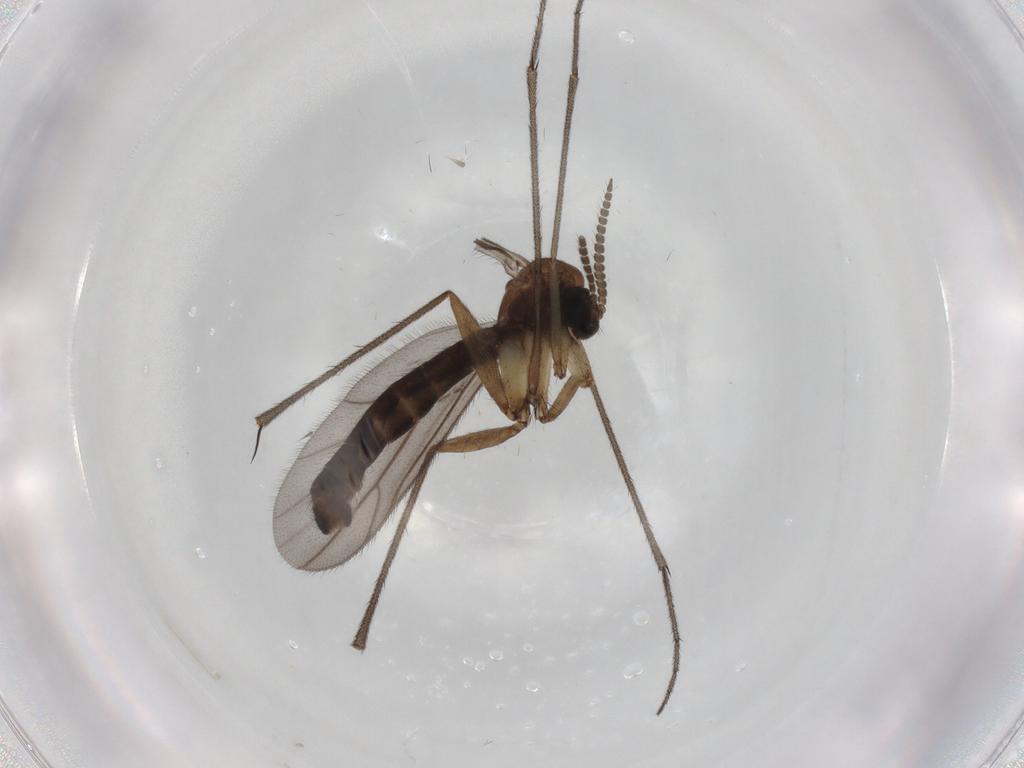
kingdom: Animalia
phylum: Arthropoda
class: Insecta
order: Diptera
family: Ditomyiidae
